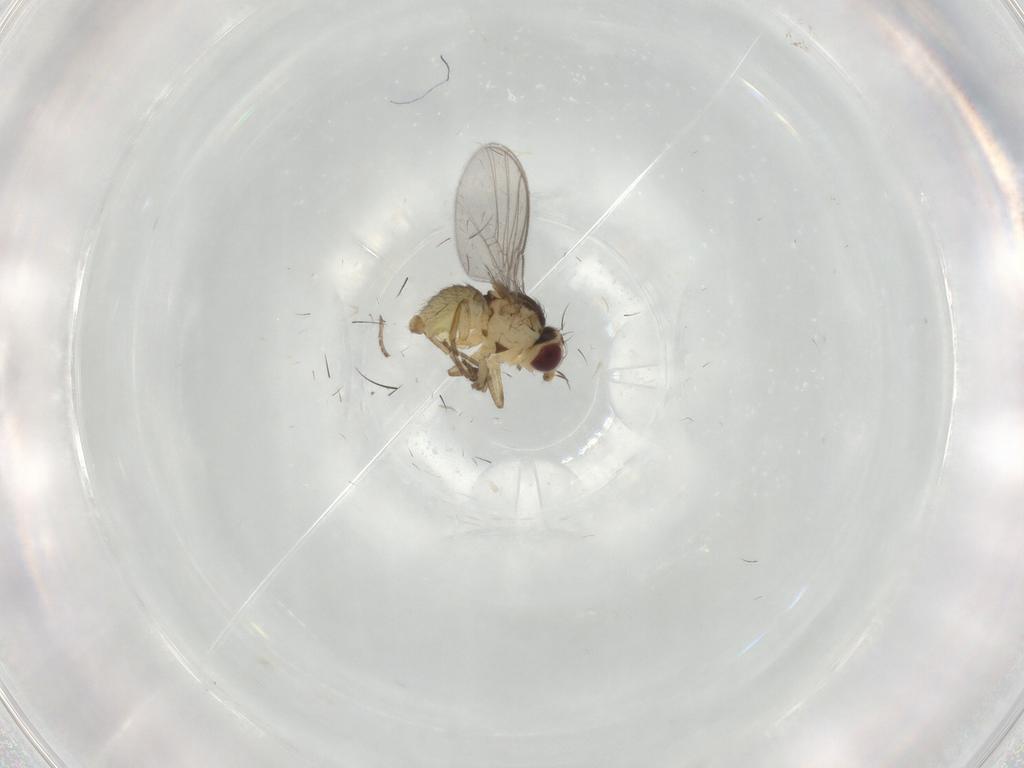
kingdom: Animalia
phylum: Arthropoda
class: Insecta
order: Diptera
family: Agromyzidae
